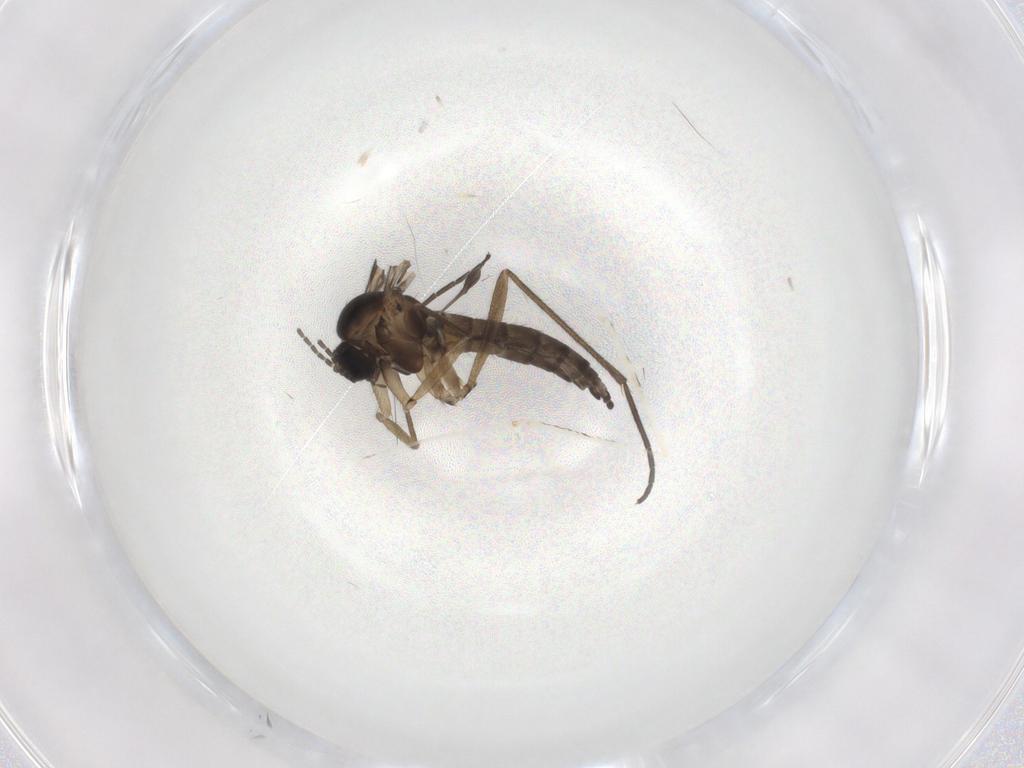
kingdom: Animalia
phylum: Arthropoda
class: Insecta
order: Diptera
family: Sciaridae
